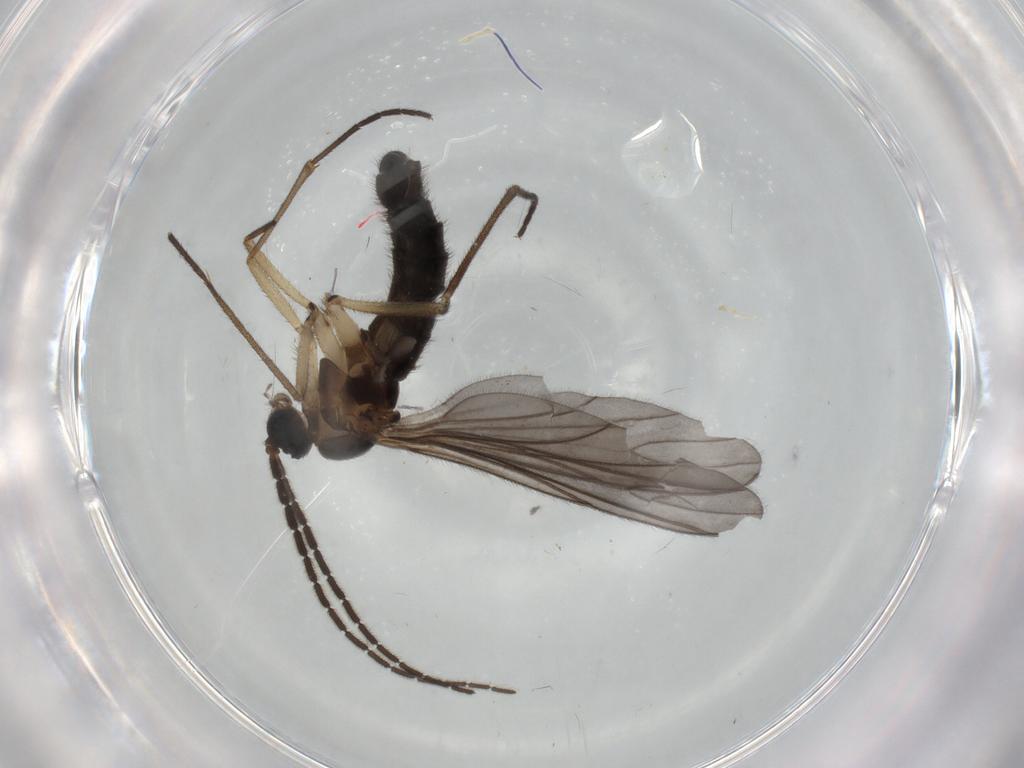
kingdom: Animalia
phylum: Arthropoda
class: Insecta
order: Diptera
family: Sciaridae
